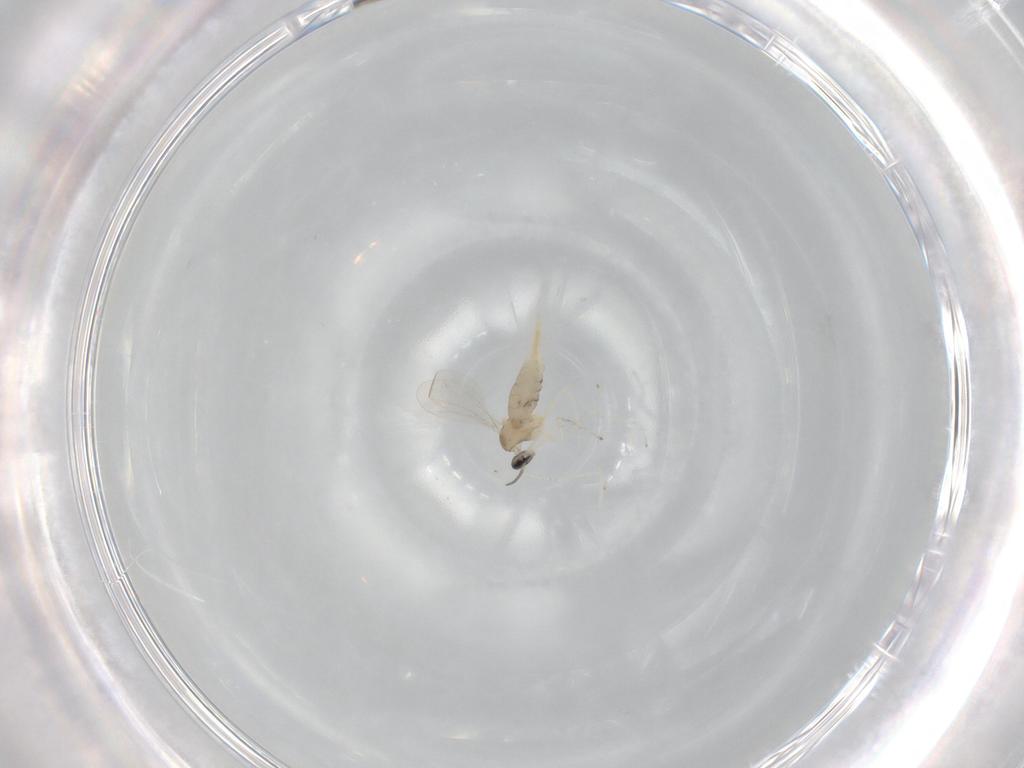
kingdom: Animalia
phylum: Arthropoda
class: Insecta
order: Diptera
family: Cecidomyiidae
